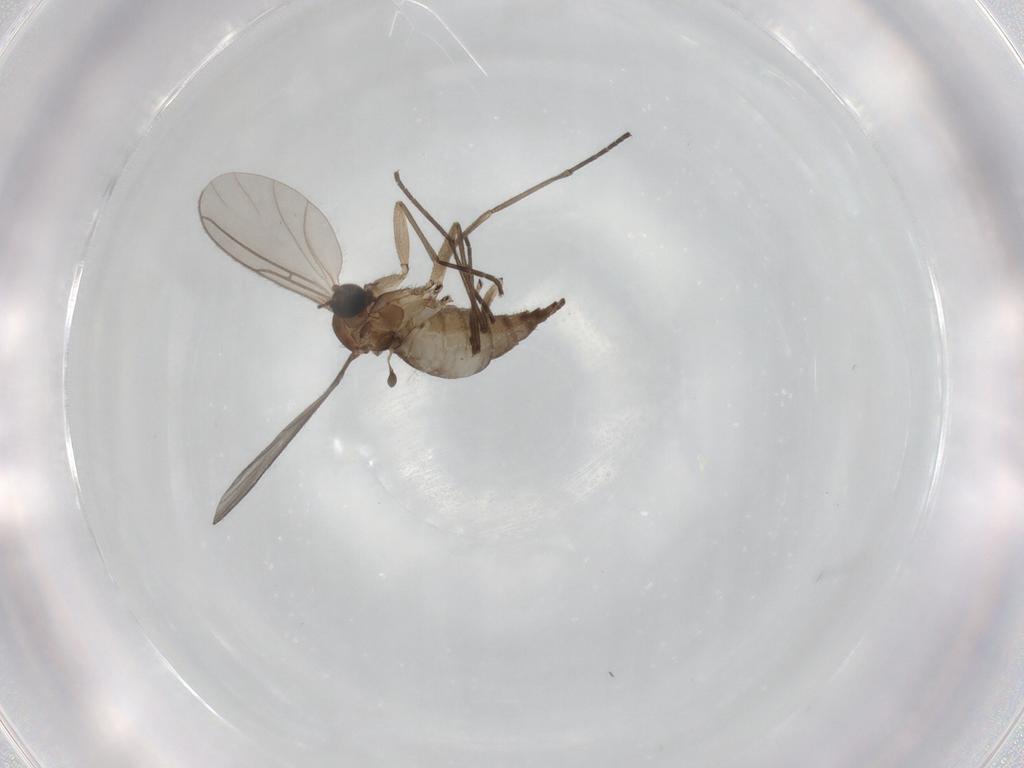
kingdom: Animalia
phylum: Arthropoda
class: Insecta
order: Diptera
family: Sciaridae
